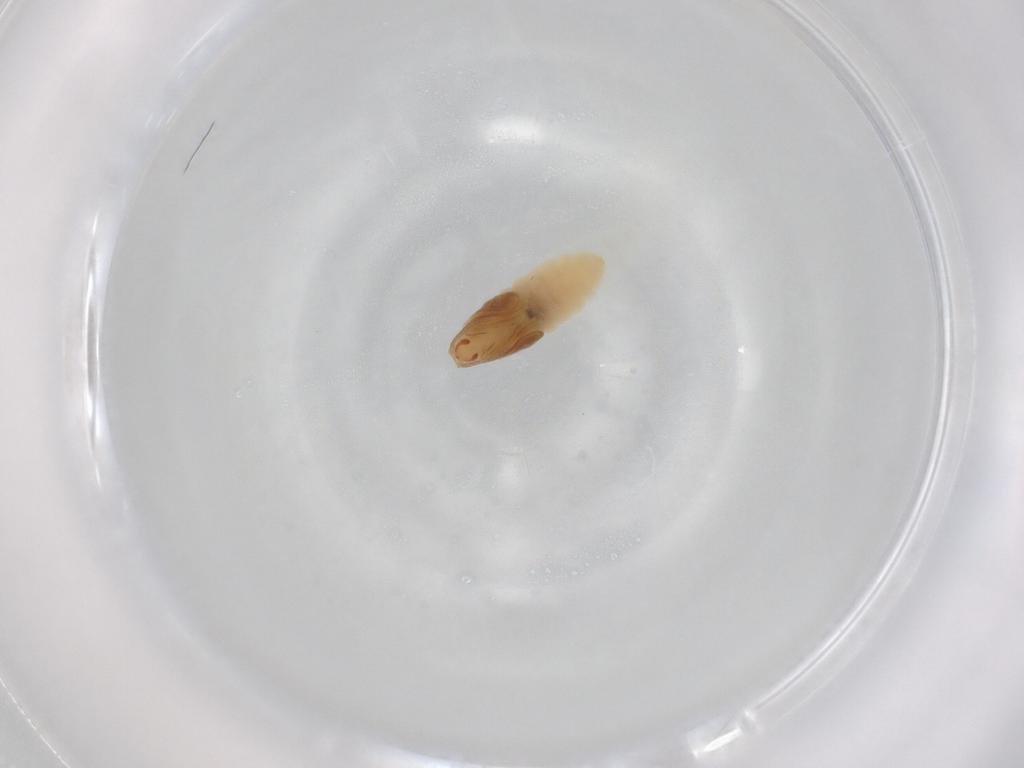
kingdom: Animalia
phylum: Arthropoda
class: Insecta
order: Diptera
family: Cecidomyiidae
